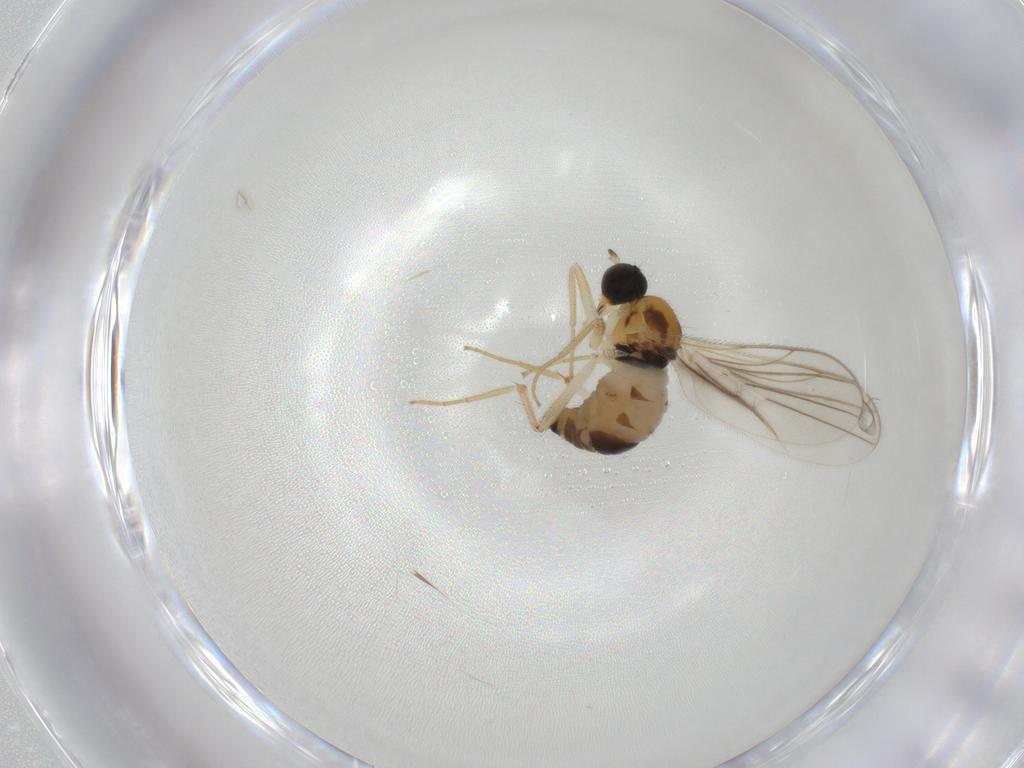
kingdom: Animalia
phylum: Arthropoda
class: Insecta
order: Diptera
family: Hybotidae
